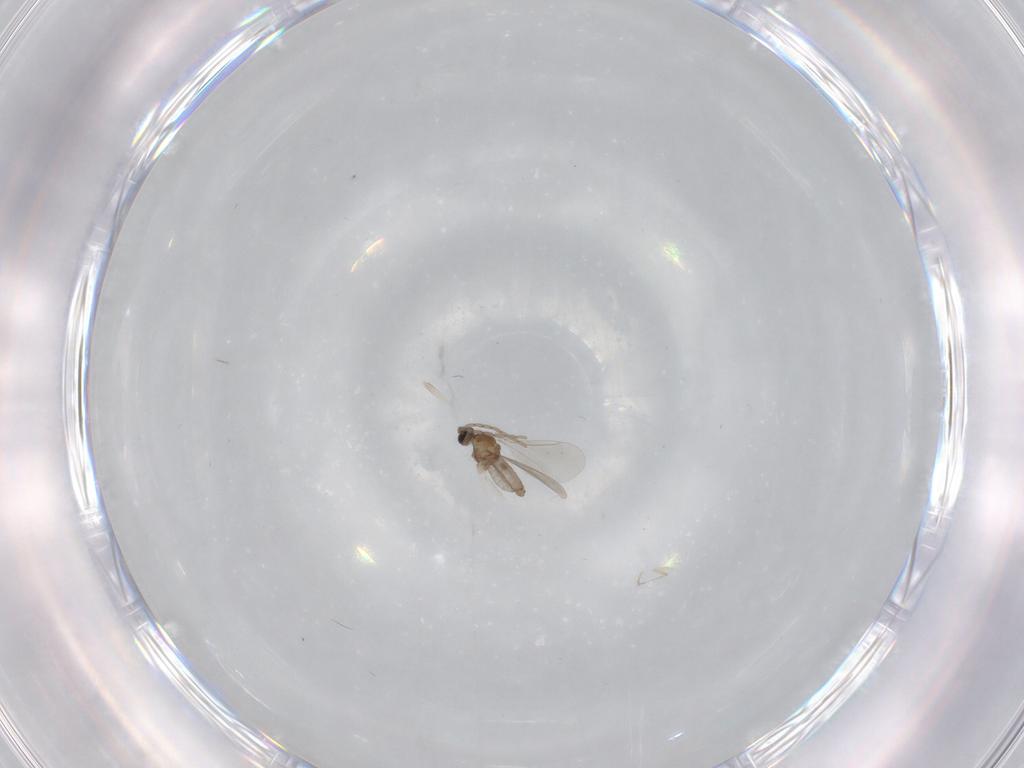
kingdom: Animalia
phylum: Arthropoda
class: Insecta
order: Diptera
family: Cecidomyiidae
